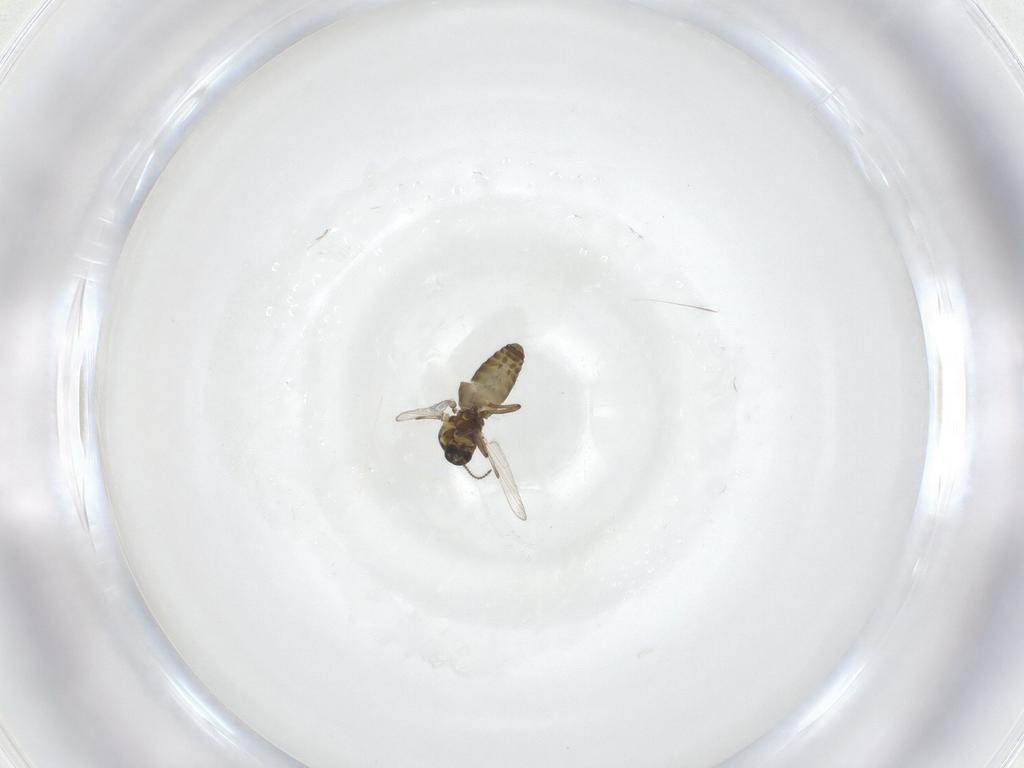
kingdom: Animalia
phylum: Arthropoda
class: Insecta
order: Diptera
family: Ceratopogonidae
